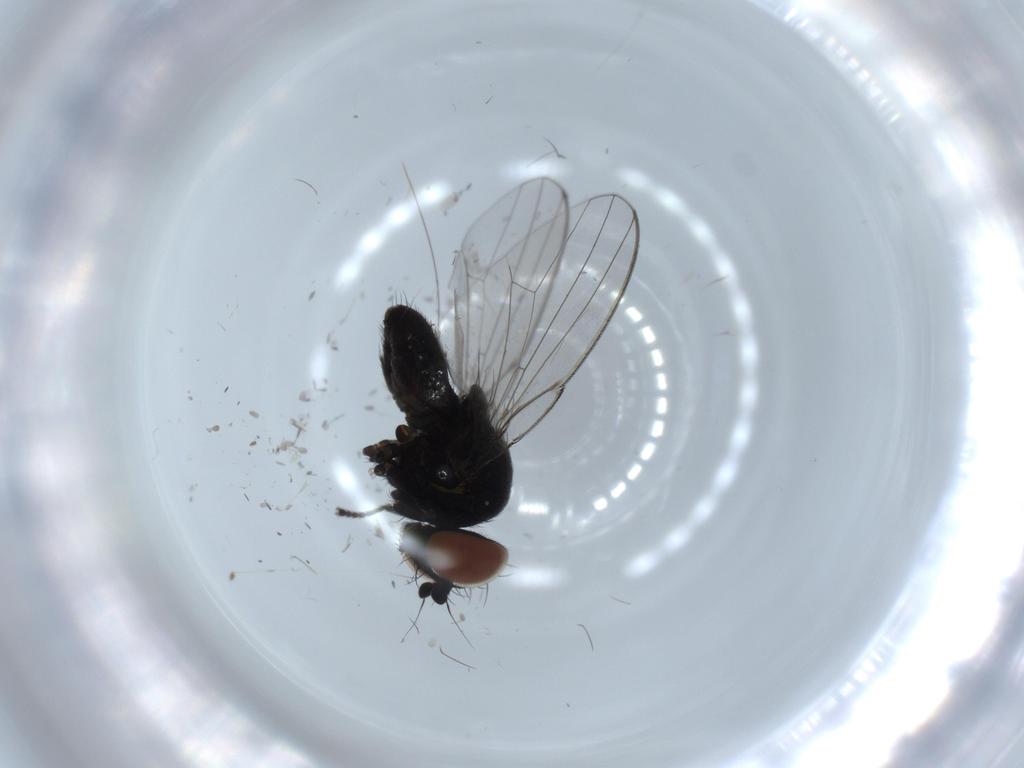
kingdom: Animalia
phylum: Arthropoda
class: Insecta
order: Diptera
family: Milichiidae
